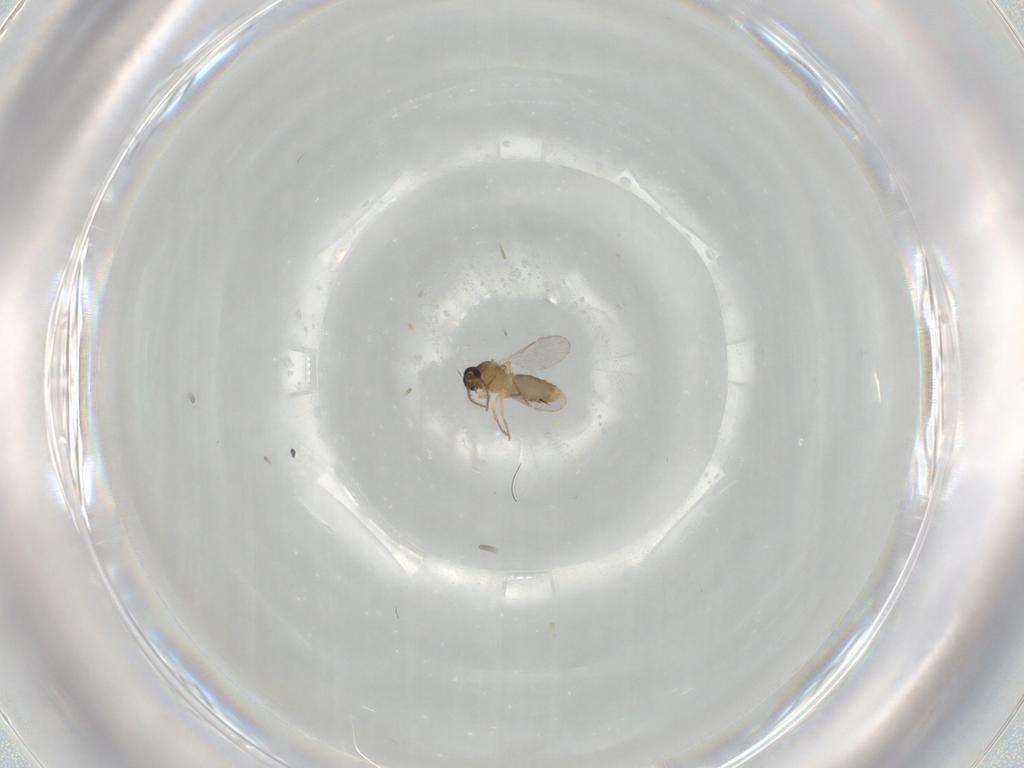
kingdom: Animalia
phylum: Arthropoda
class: Insecta
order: Diptera
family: Ceratopogonidae
